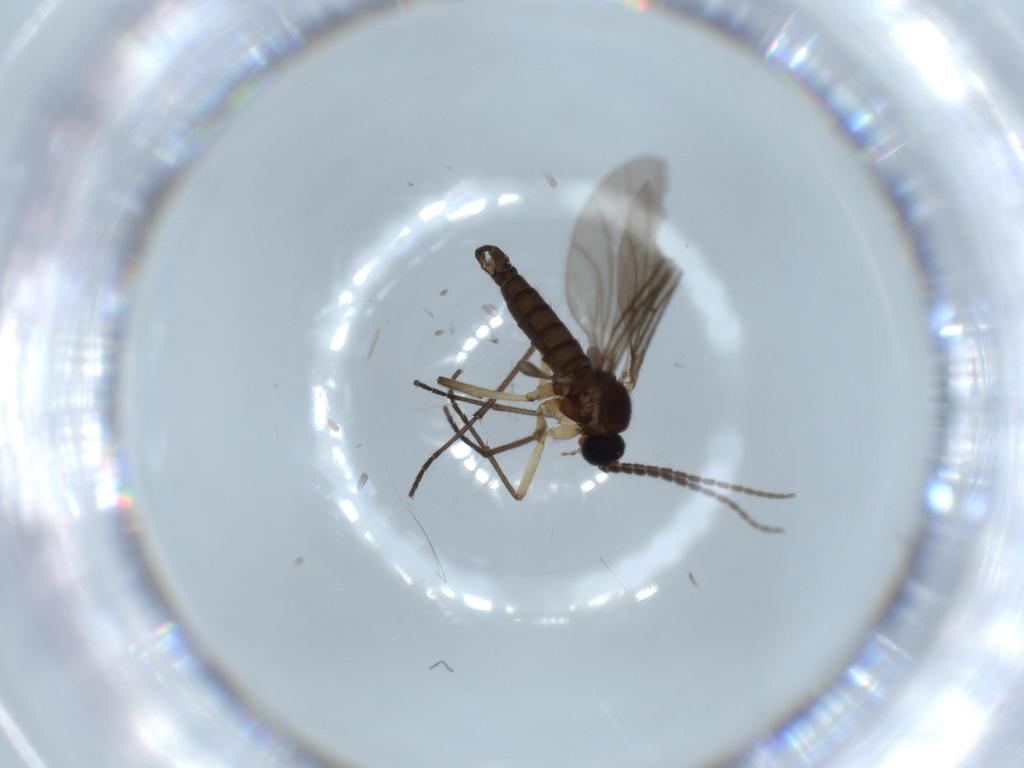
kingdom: Animalia
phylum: Arthropoda
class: Insecta
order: Diptera
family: Sciaridae
